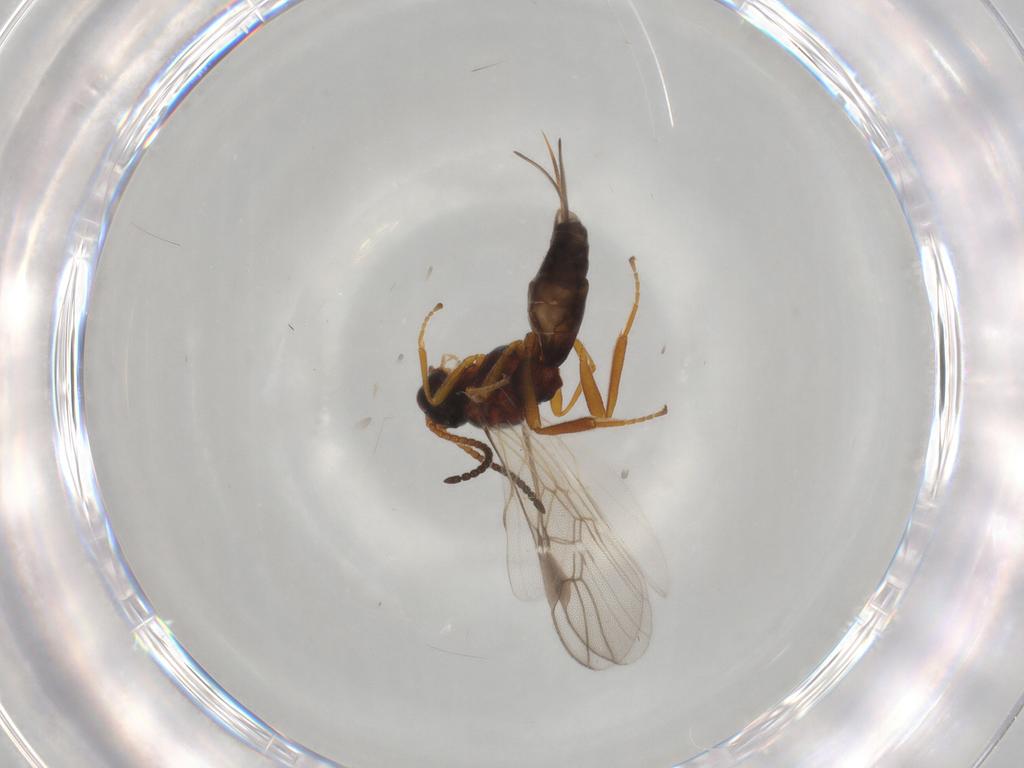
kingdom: Animalia
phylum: Arthropoda
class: Insecta
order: Hymenoptera
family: Braconidae
